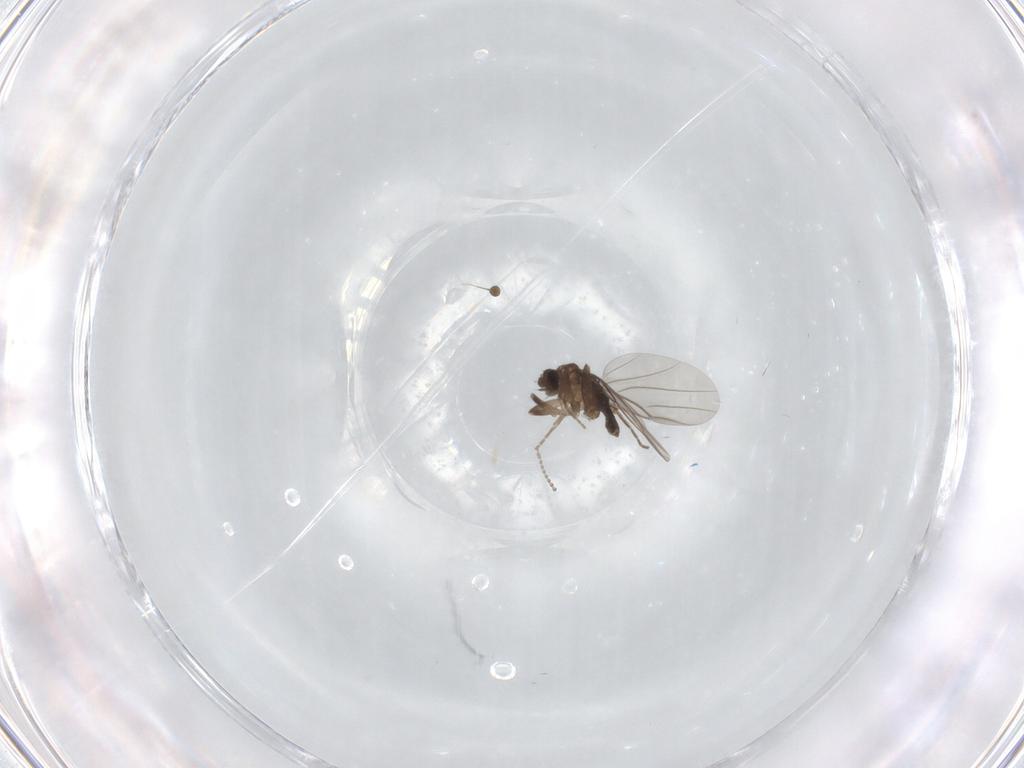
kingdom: Animalia
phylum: Arthropoda
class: Insecta
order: Diptera
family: Phoridae
